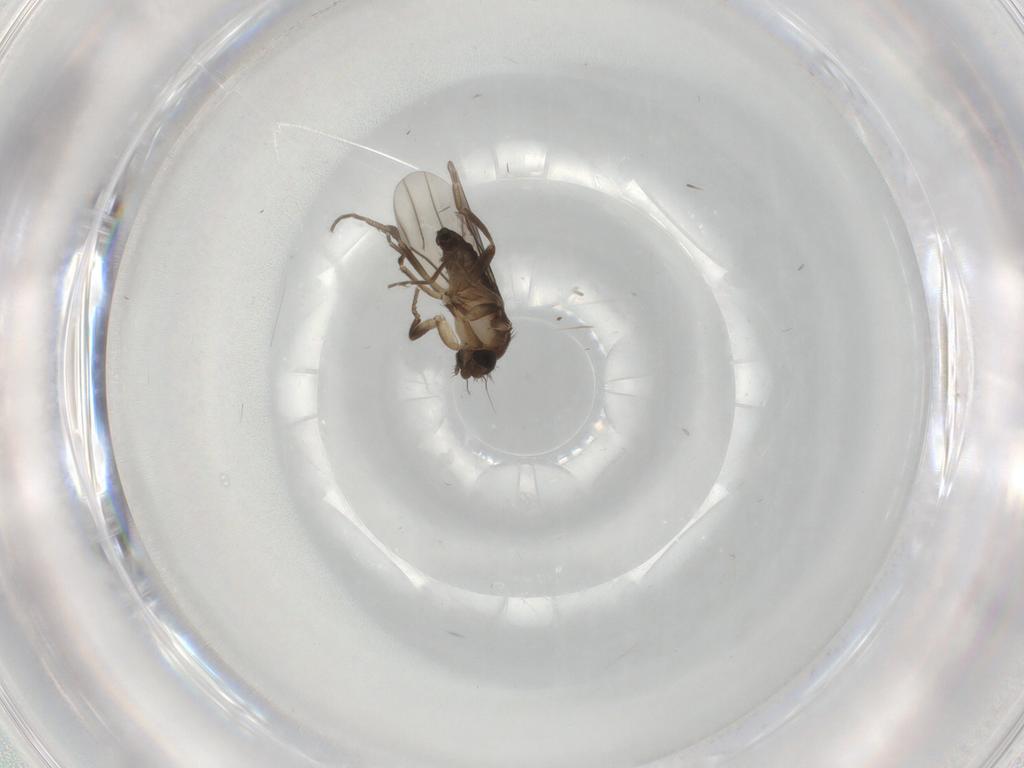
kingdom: Animalia
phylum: Arthropoda
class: Insecta
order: Diptera
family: Phoridae
